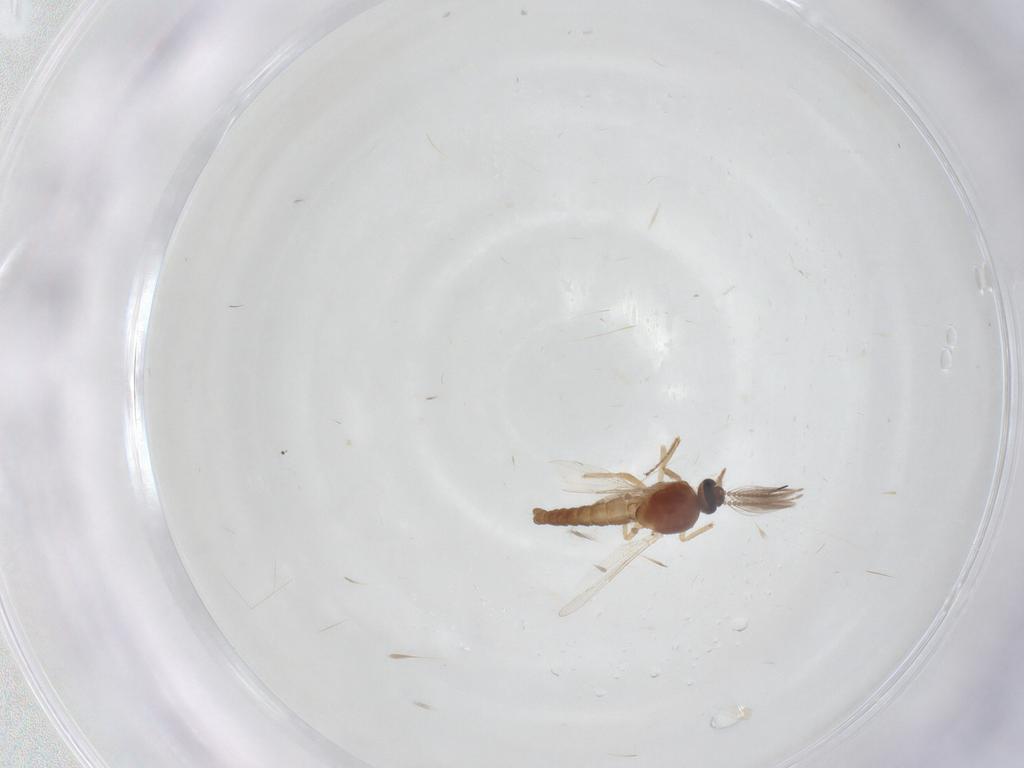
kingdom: Animalia
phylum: Arthropoda
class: Insecta
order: Diptera
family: Ceratopogonidae
